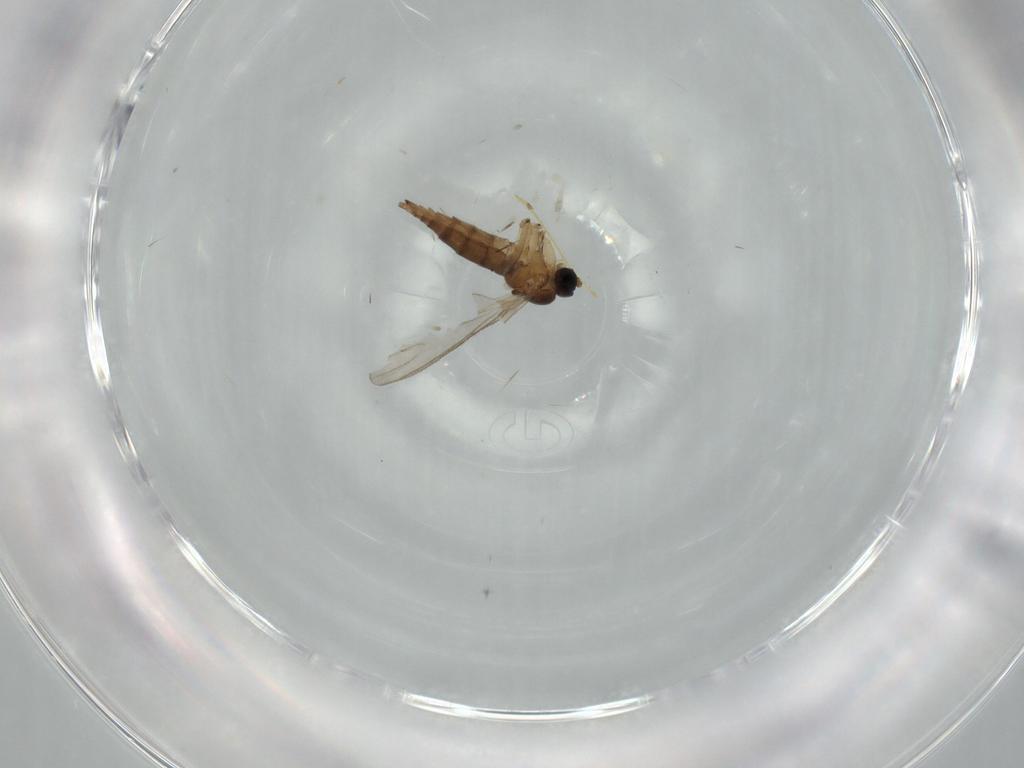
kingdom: Animalia
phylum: Arthropoda
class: Insecta
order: Diptera
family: Sciaridae
